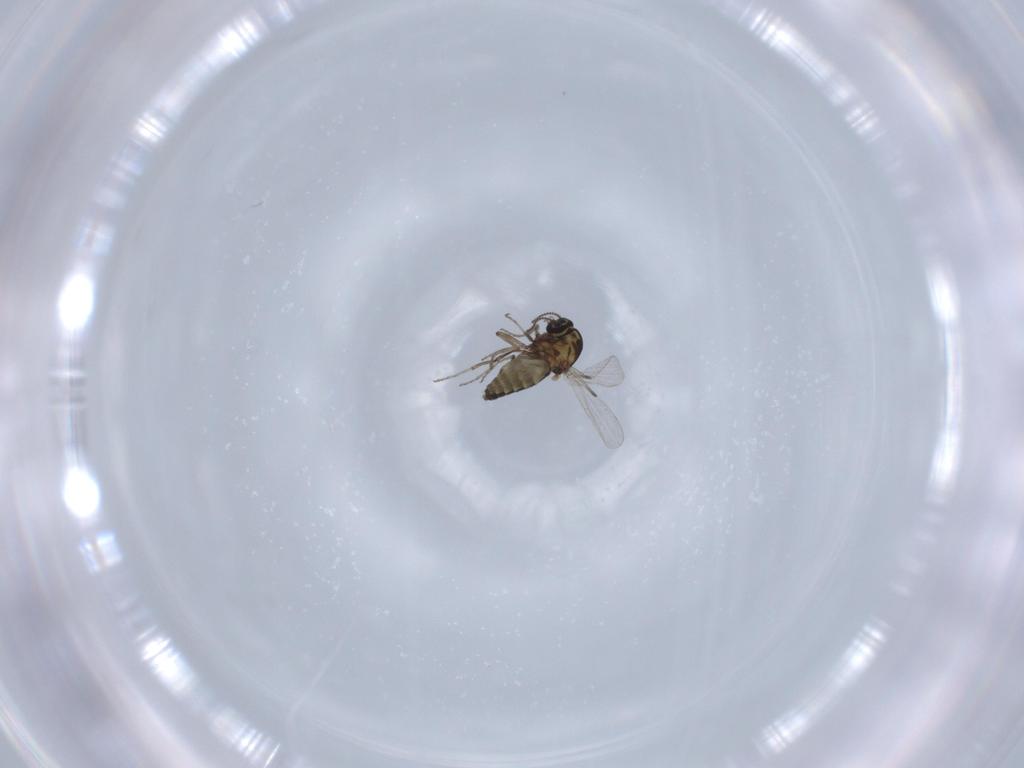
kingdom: Animalia
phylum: Arthropoda
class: Insecta
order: Diptera
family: Ceratopogonidae
